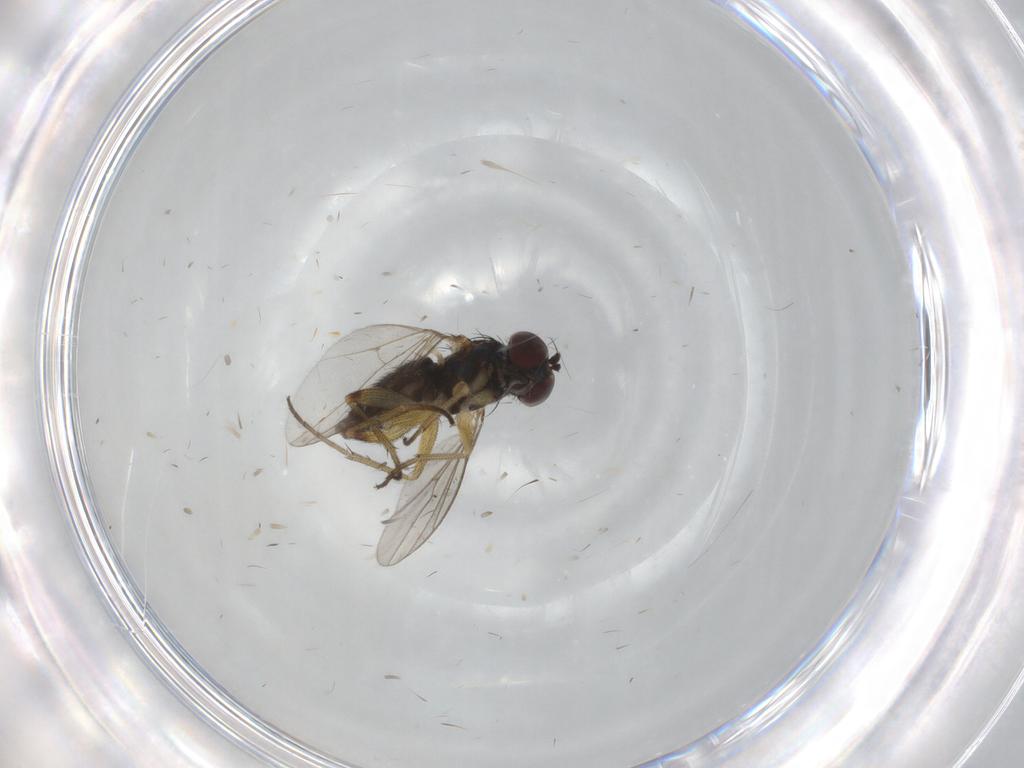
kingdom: Animalia
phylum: Arthropoda
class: Insecta
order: Diptera
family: Dolichopodidae
